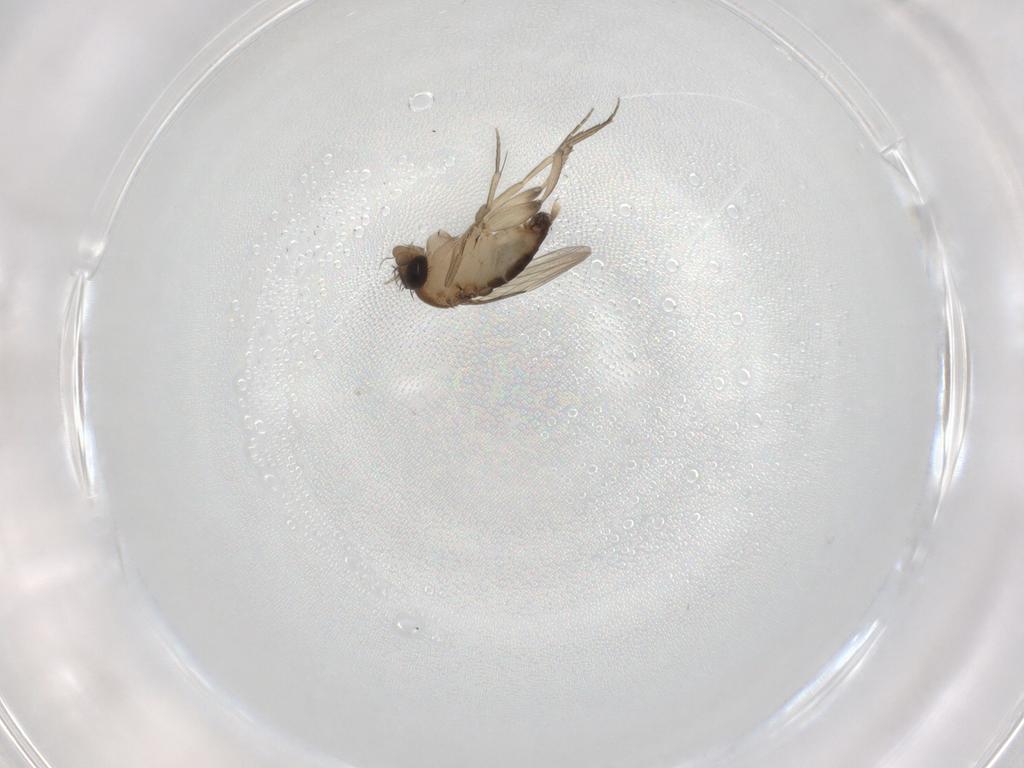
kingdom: Animalia
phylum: Arthropoda
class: Insecta
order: Diptera
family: Phoridae
